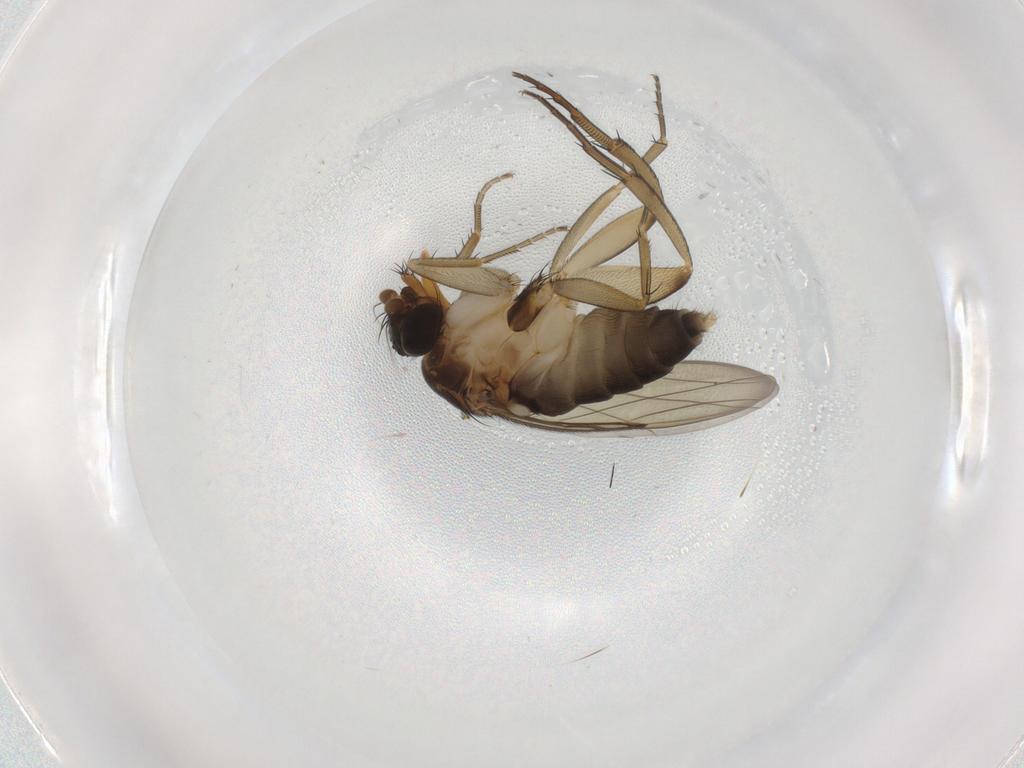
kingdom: Animalia
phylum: Arthropoda
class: Insecta
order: Diptera
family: Phoridae
